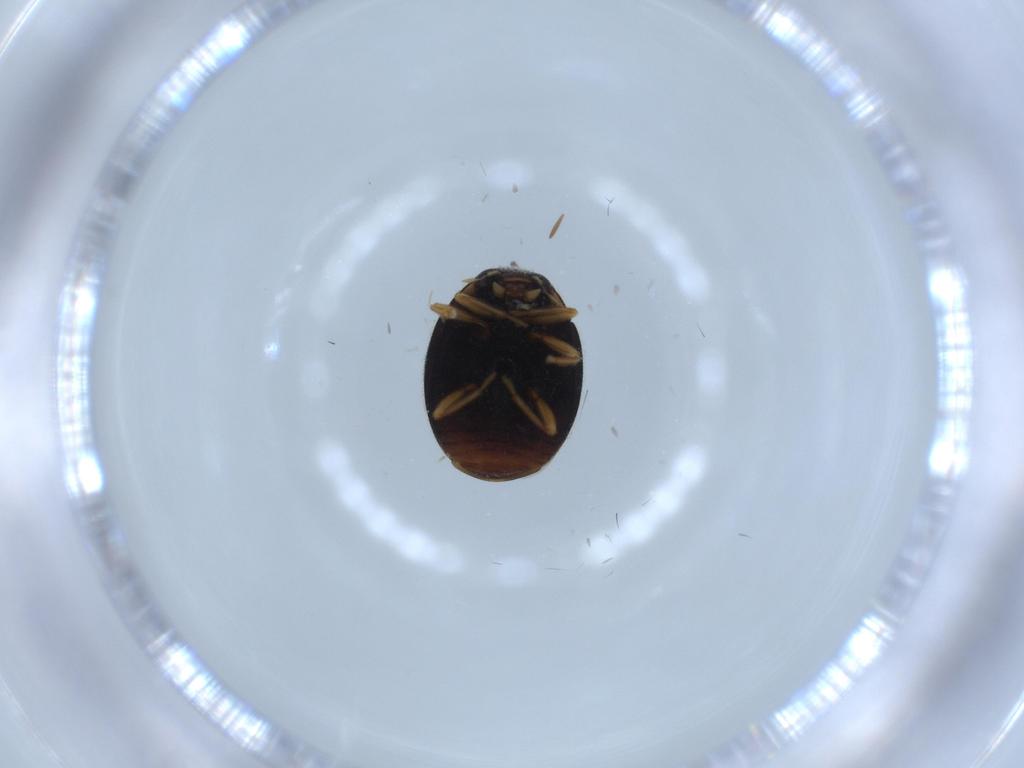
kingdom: Animalia
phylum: Arthropoda
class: Insecta
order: Coleoptera
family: Coccinellidae
